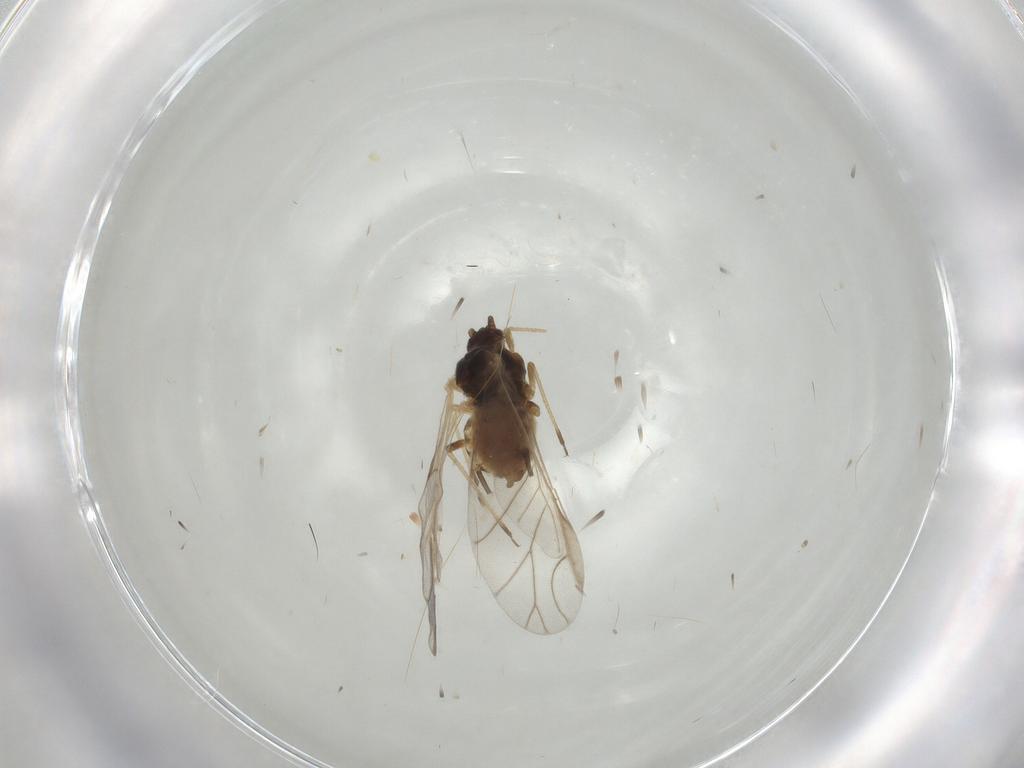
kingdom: Animalia
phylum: Arthropoda
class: Insecta
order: Hemiptera
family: Aphididae
